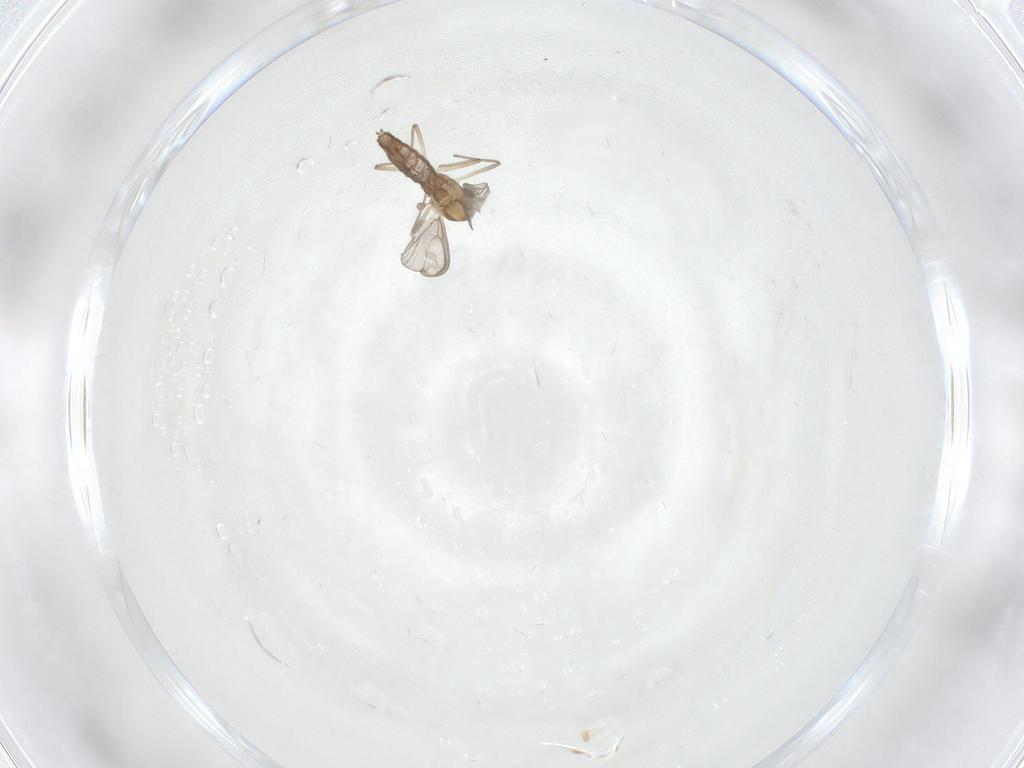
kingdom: Animalia
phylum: Arthropoda
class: Insecta
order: Diptera
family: Chironomidae
